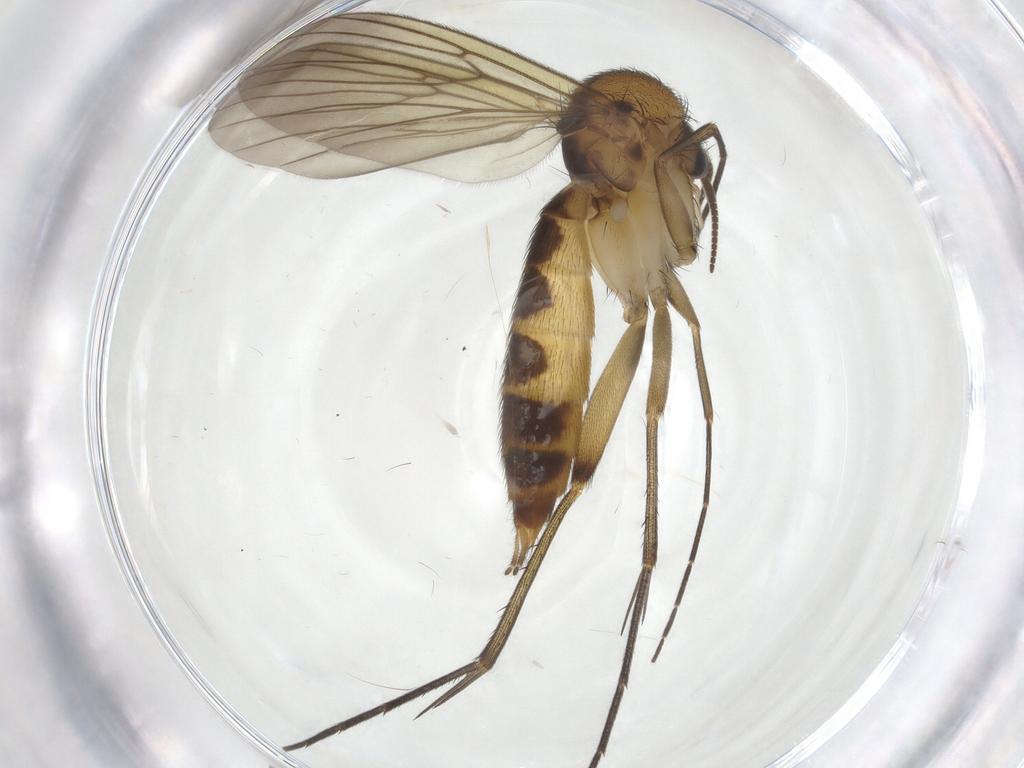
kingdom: Animalia
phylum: Arthropoda
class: Insecta
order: Diptera
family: Mycetophilidae
